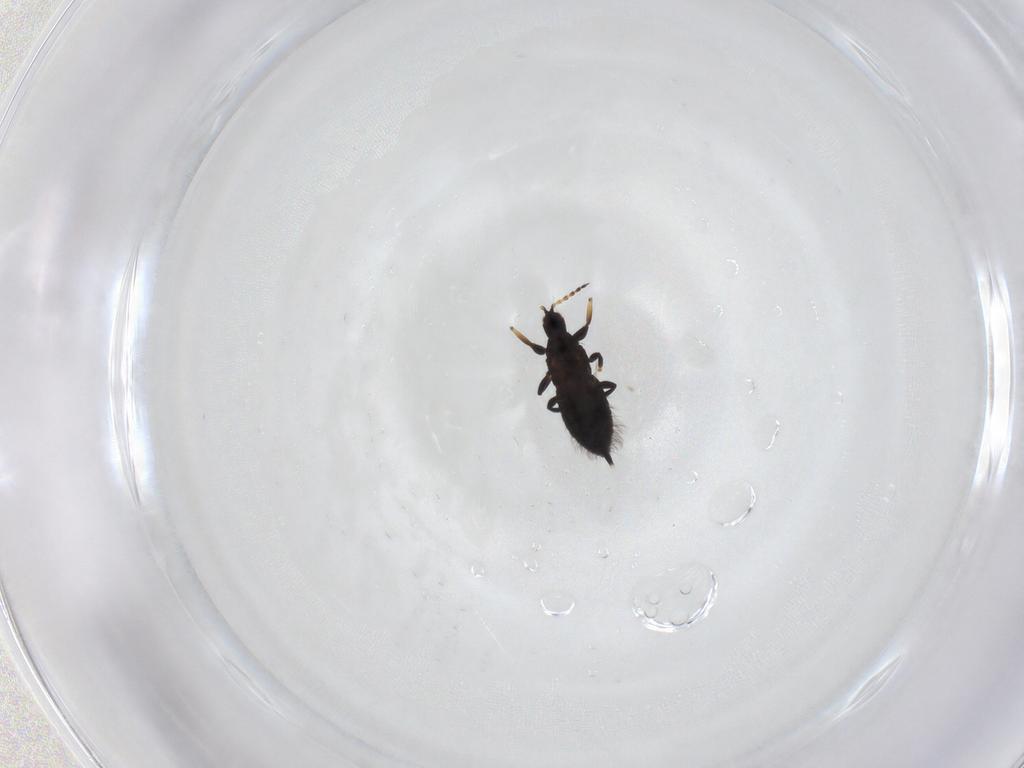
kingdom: Animalia
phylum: Arthropoda
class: Insecta
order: Thysanoptera
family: Phlaeothripidae
